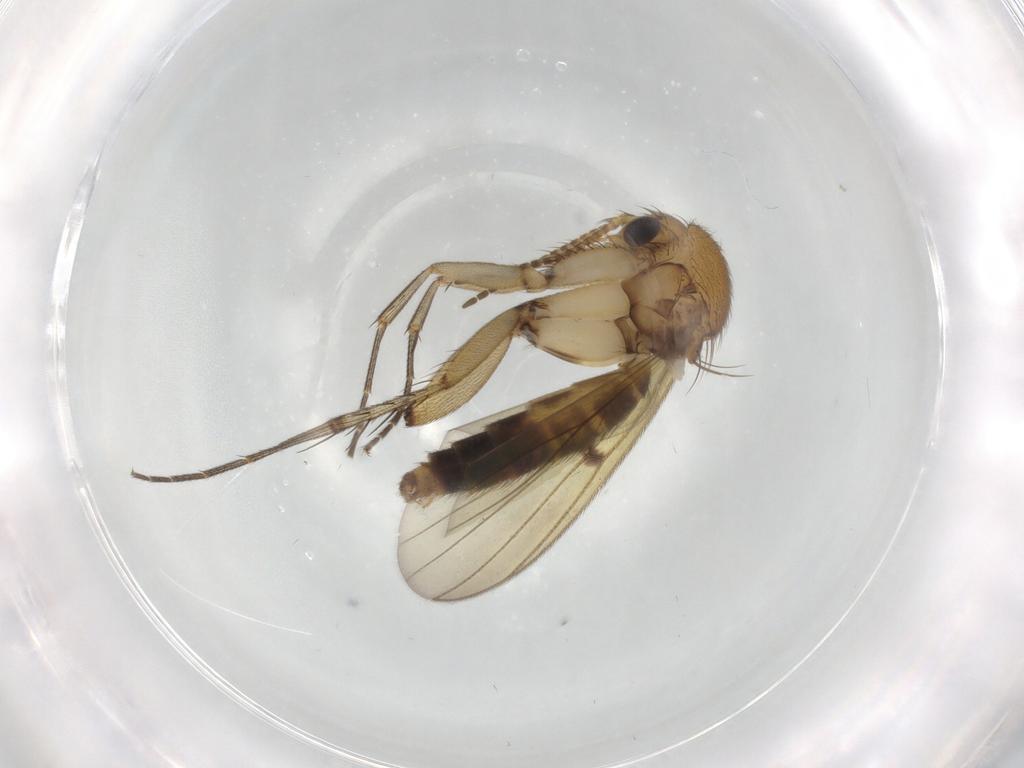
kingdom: Animalia
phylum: Arthropoda
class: Insecta
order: Diptera
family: Mycetophilidae
